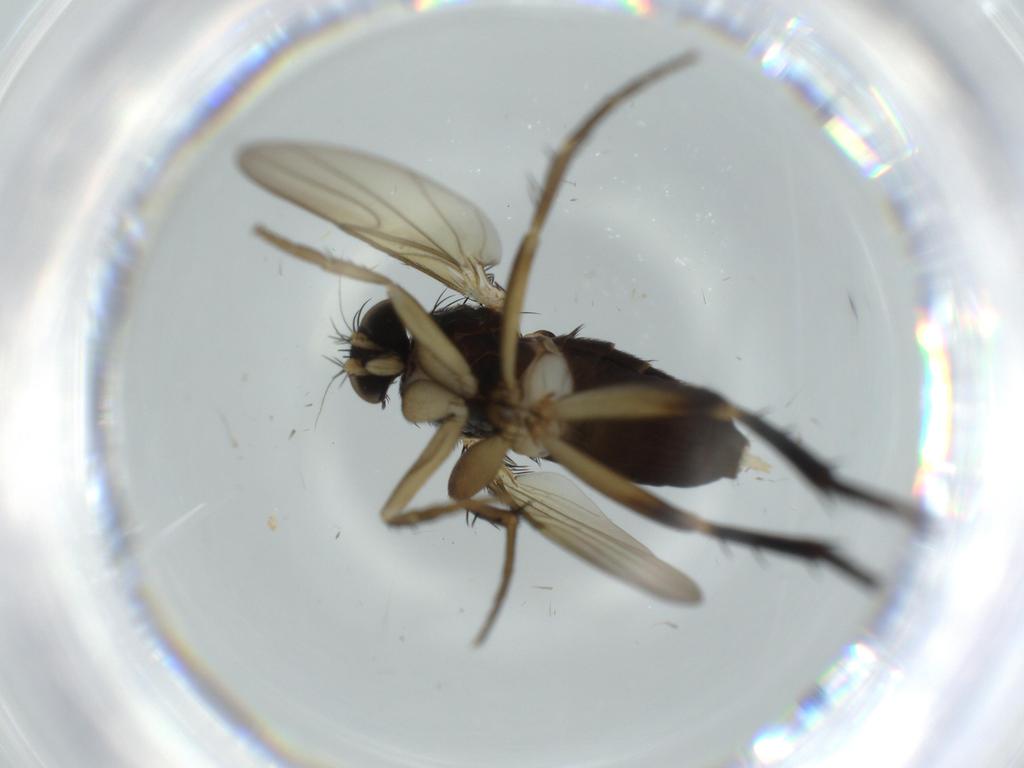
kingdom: Animalia
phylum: Arthropoda
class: Insecta
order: Diptera
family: Phoridae
